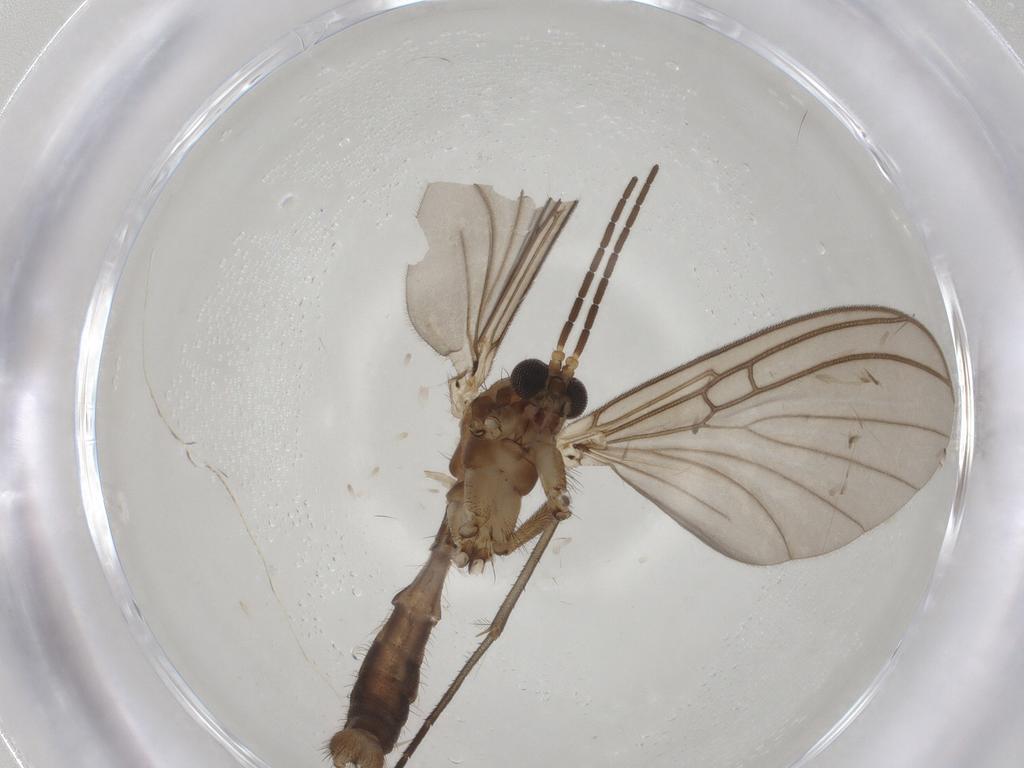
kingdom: Animalia
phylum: Arthropoda
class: Insecta
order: Diptera
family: Mycetophilidae
